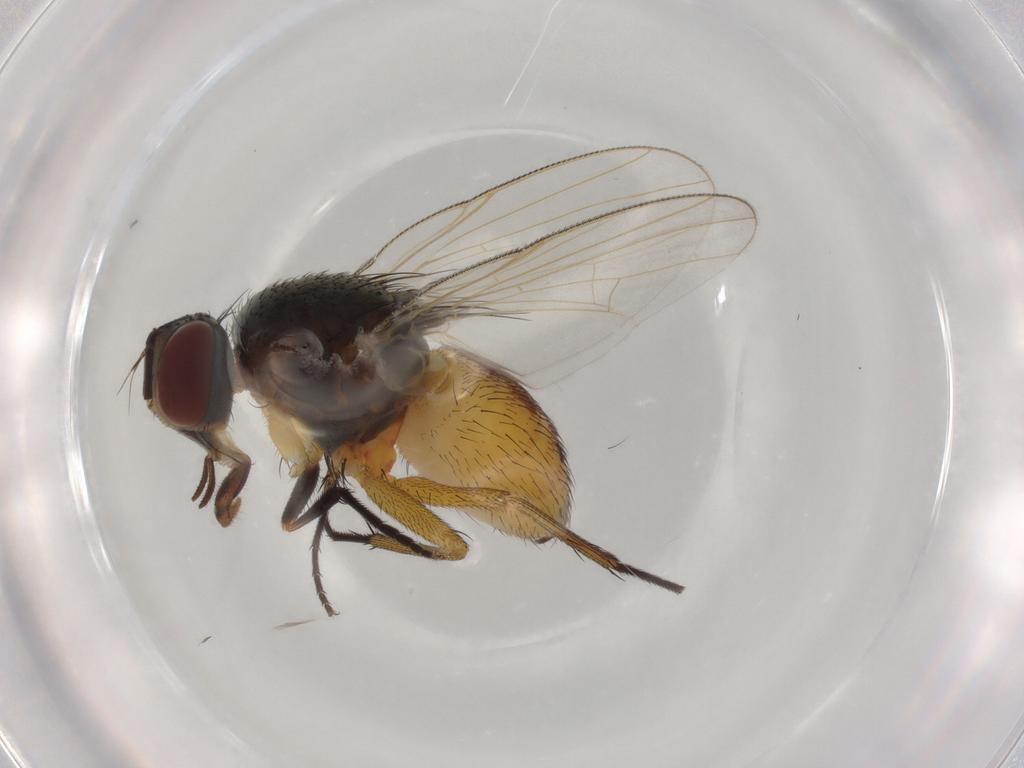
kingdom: Animalia
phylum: Arthropoda
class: Insecta
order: Diptera
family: Muscidae
